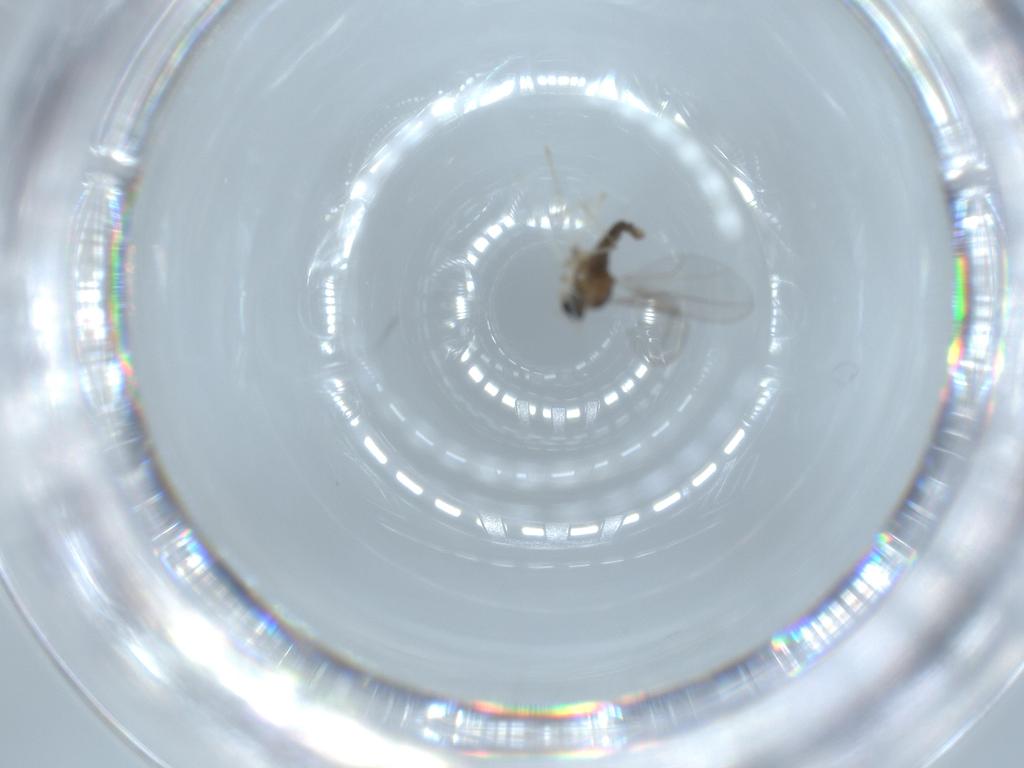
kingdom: Animalia
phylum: Arthropoda
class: Insecta
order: Diptera
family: Cecidomyiidae
